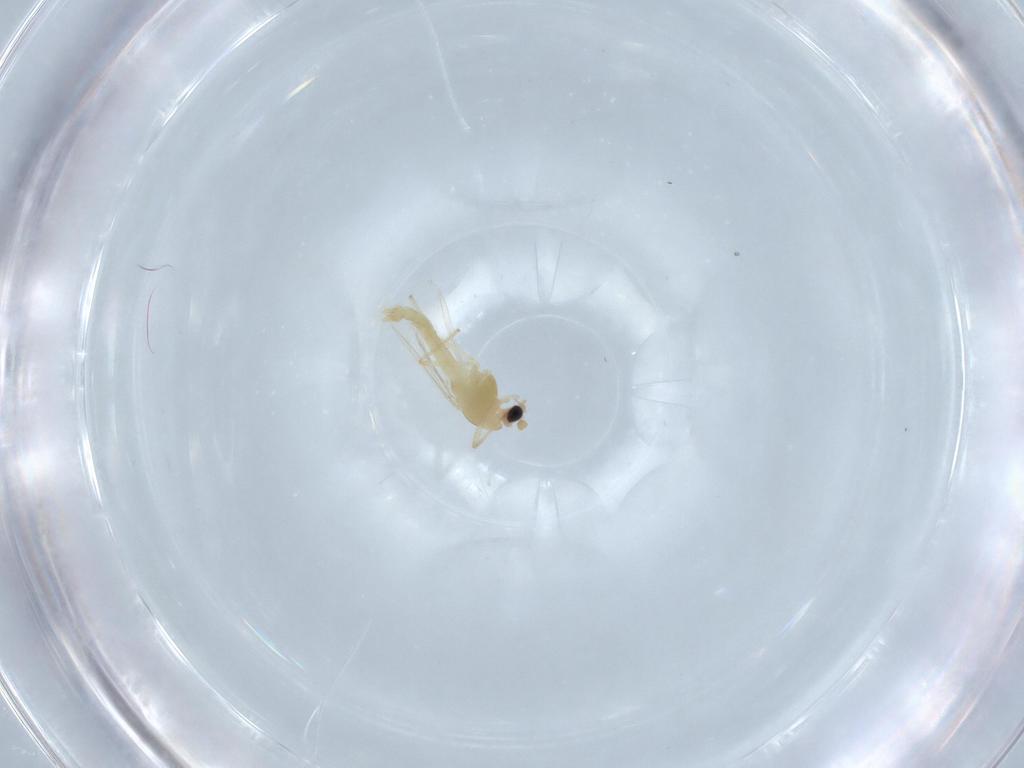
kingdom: Animalia
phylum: Arthropoda
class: Insecta
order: Diptera
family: Chironomidae
